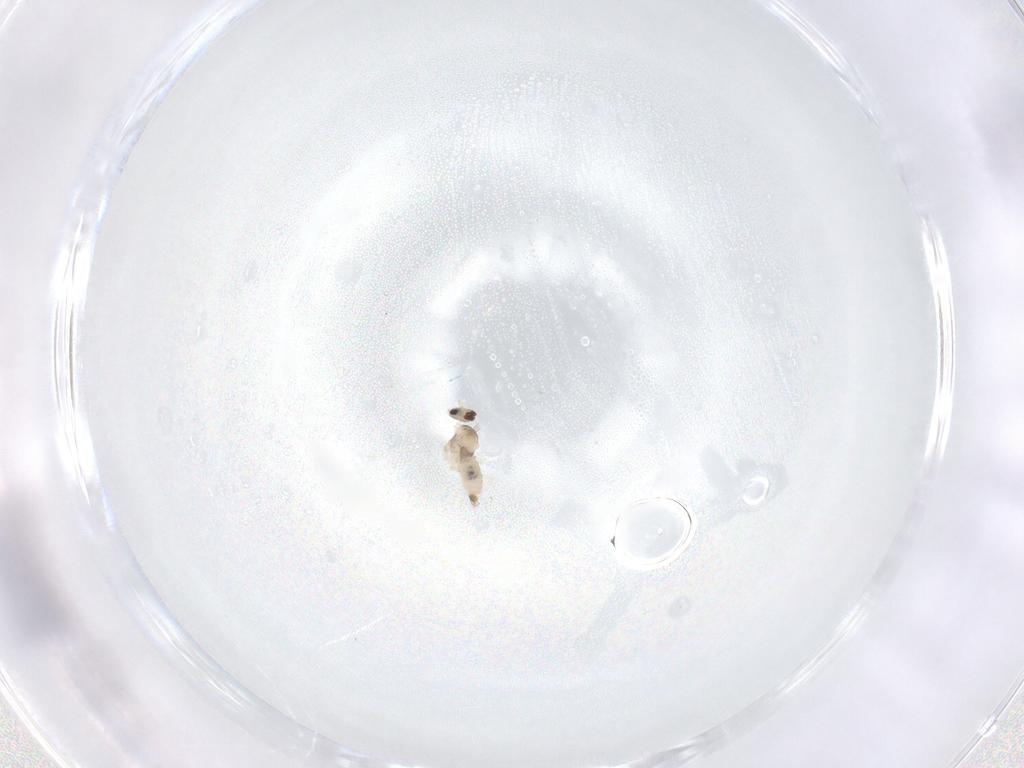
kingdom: Animalia
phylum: Arthropoda
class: Insecta
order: Diptera
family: Cecidomyiidae
